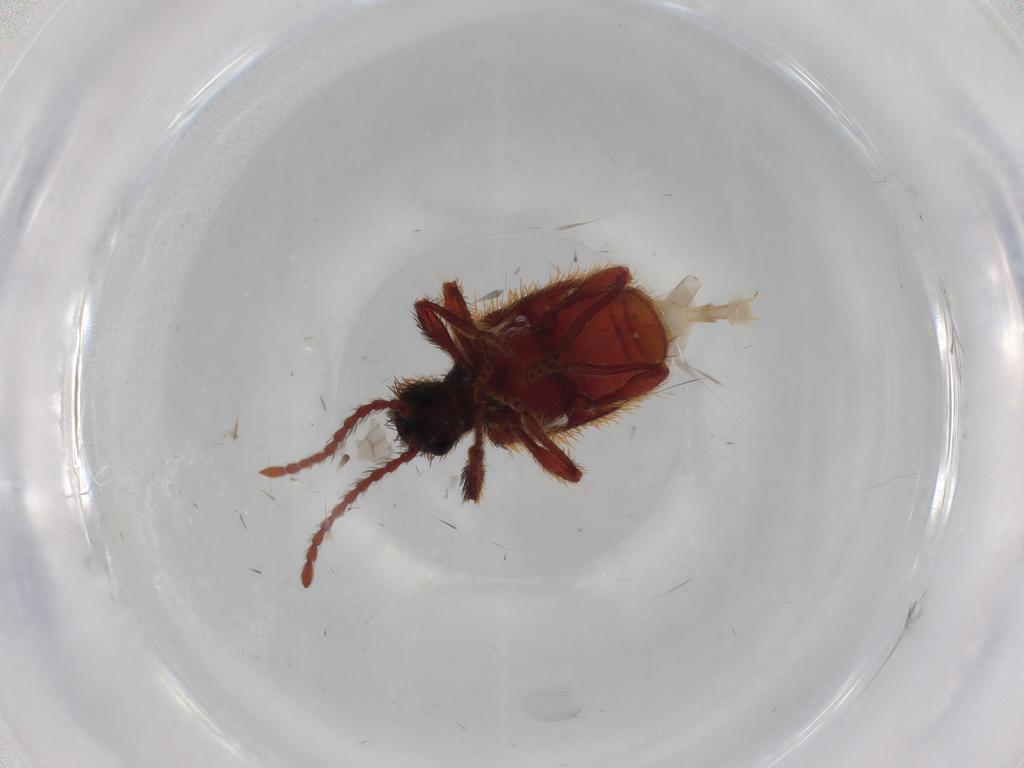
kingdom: Animalia
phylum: Arthropoda
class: Insecta
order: Coleoptera
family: Ptinidae
